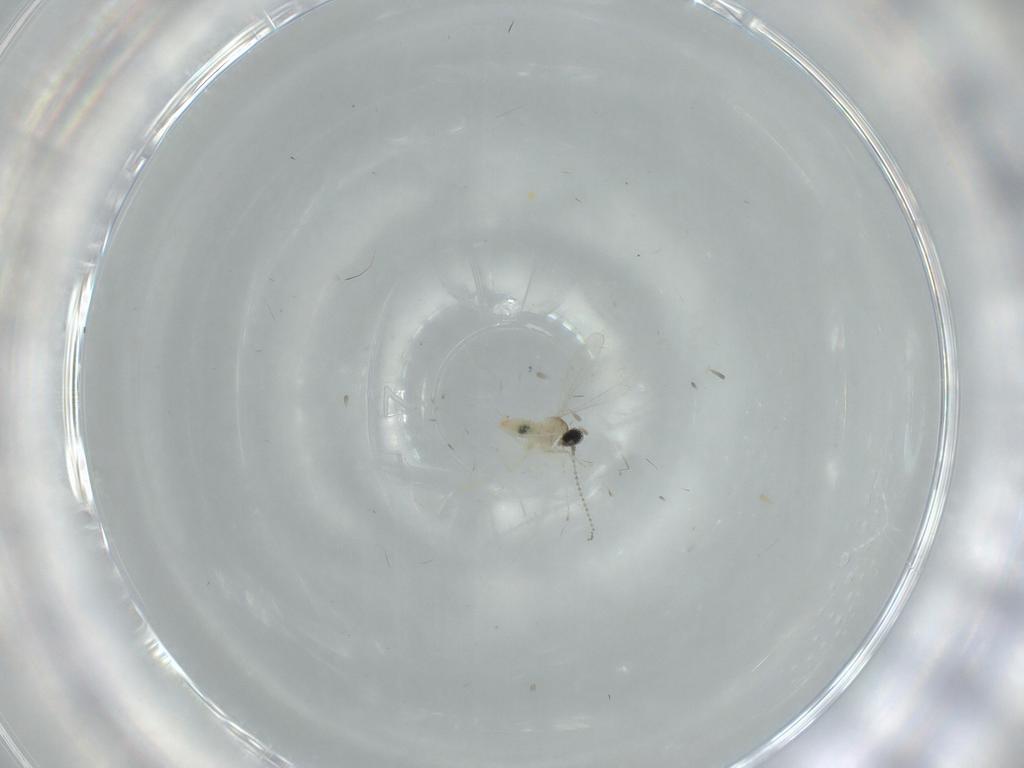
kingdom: Animalia
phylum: Arthropoda
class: Insecta
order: Diptera
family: Cecidomyiidae
